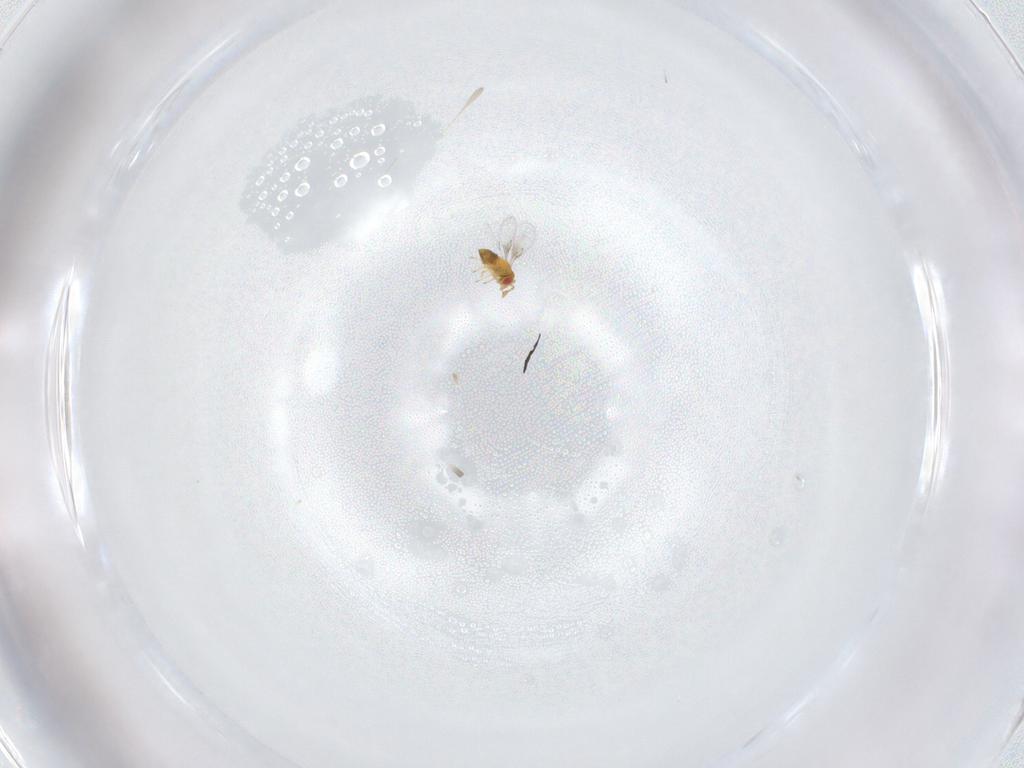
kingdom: Animalia
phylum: Arthropoda
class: Insecta
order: Hymenoptera
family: Trichogrammatidae
